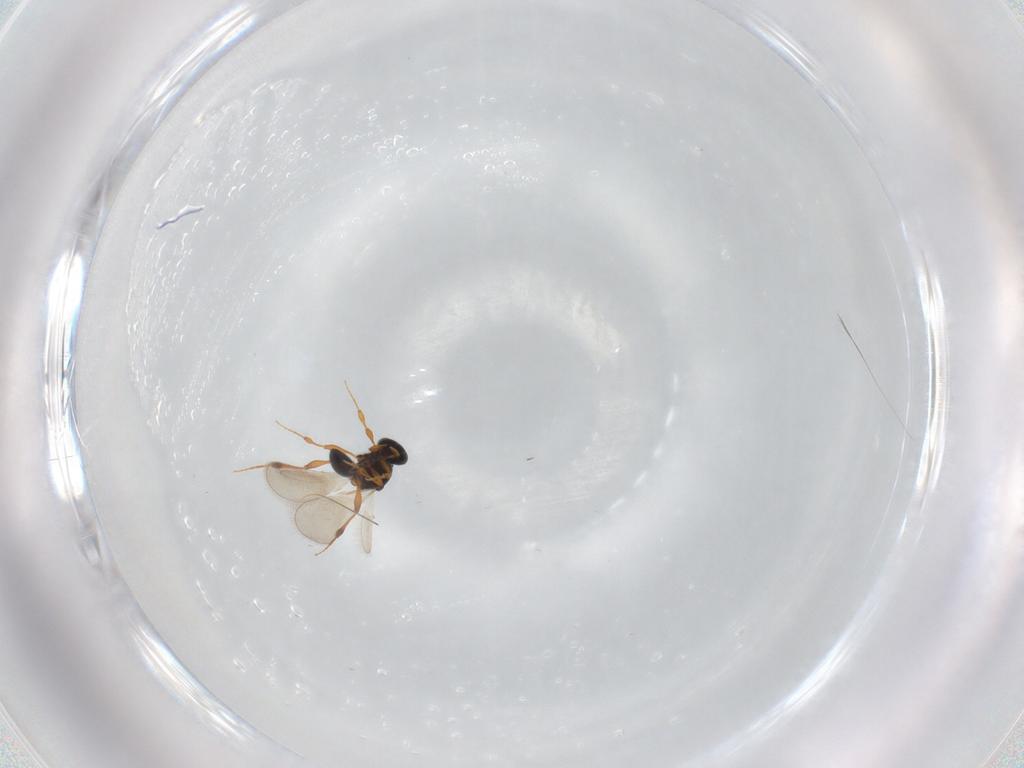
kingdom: Animalia
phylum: Arthropoda
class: Insecta
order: Hymenoptera
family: Platygastridae
